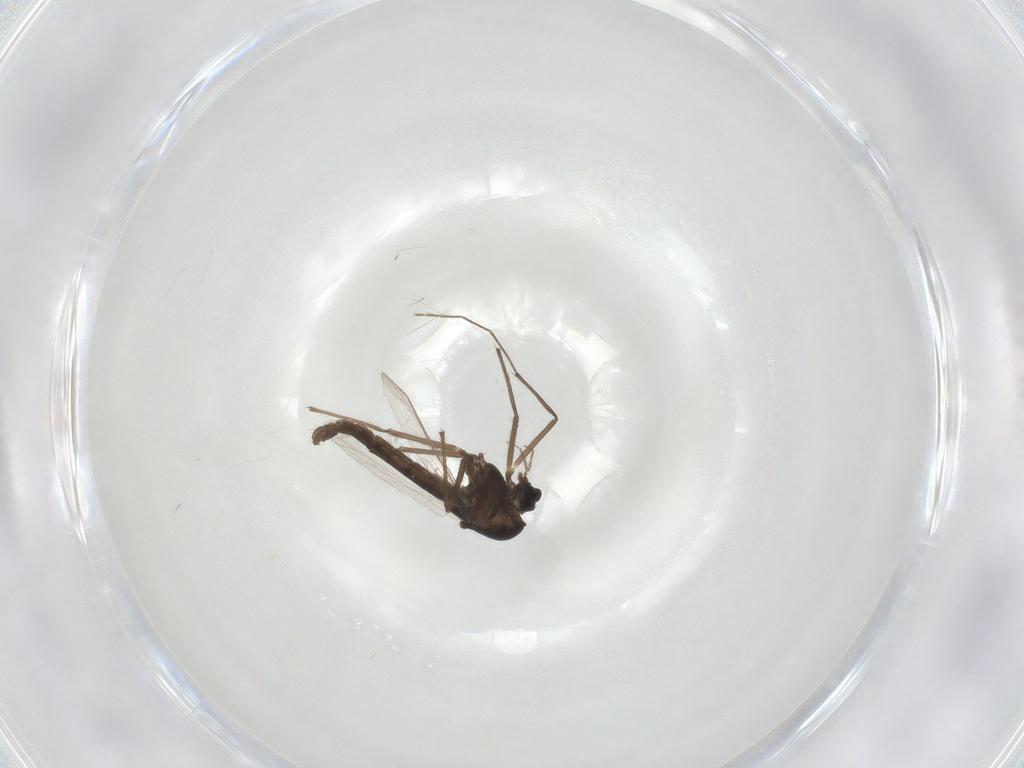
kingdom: Animalia
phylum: Arthropoda
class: Insecta
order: Diptera
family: Chironomidae
